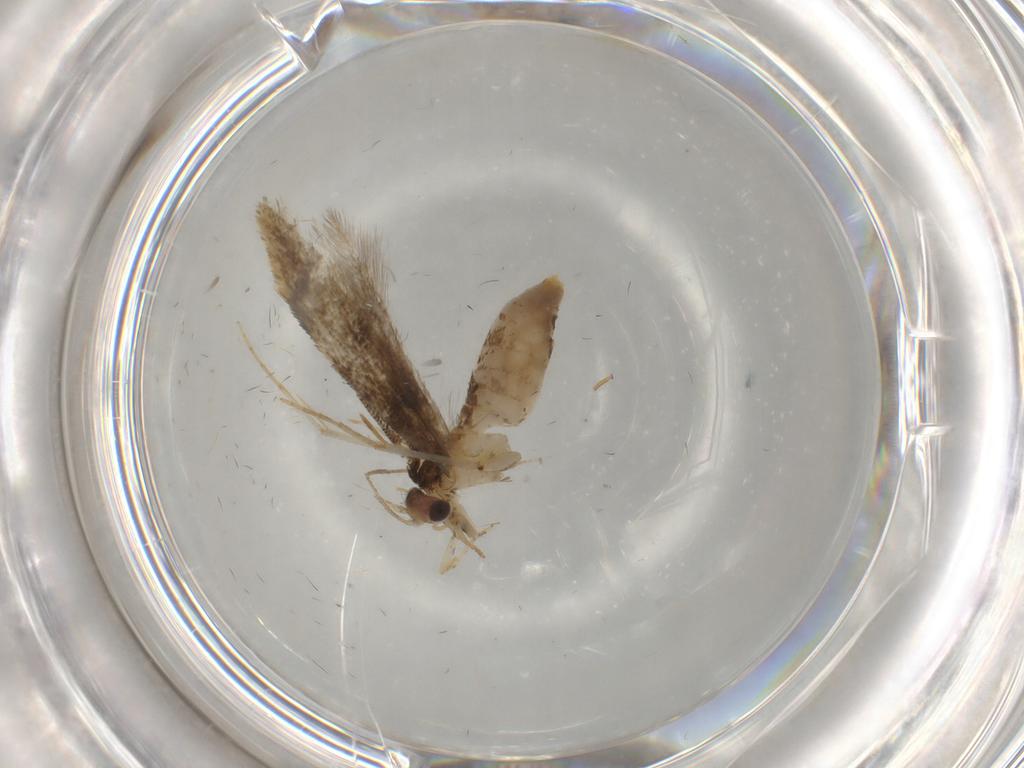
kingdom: Animalia
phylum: Arthropoda
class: Insecta
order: Lepidoptera
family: Tineidae
